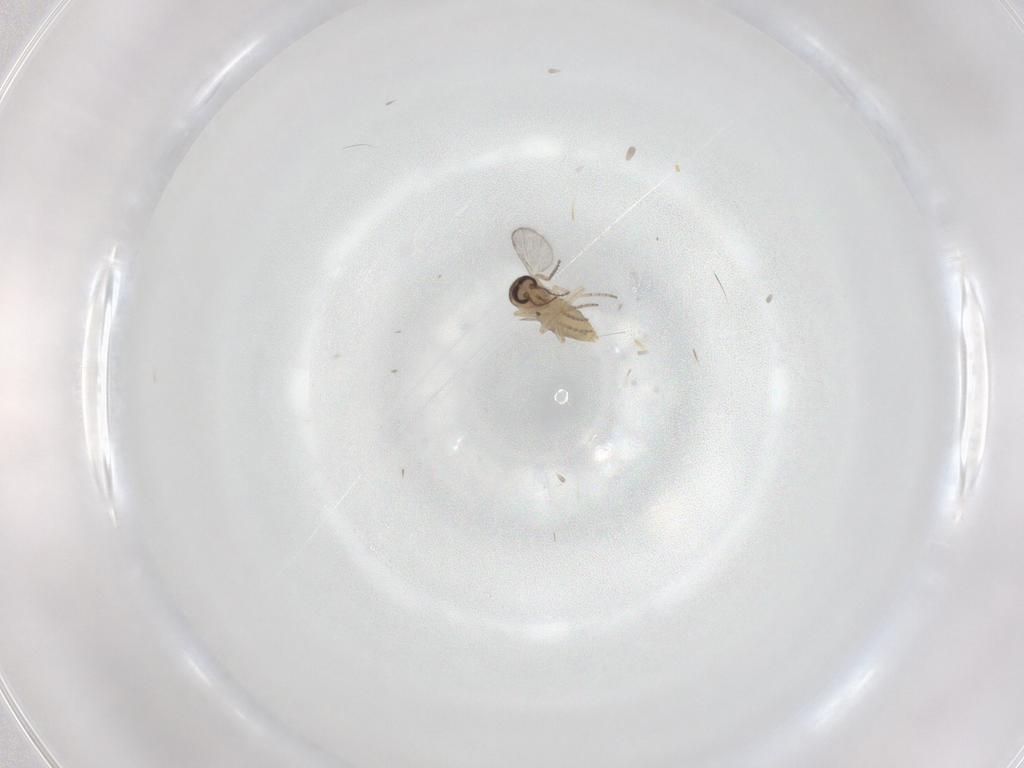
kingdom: Animalia
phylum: Arthropoda
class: Insecta
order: Diptera
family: Ceratopogonidae
